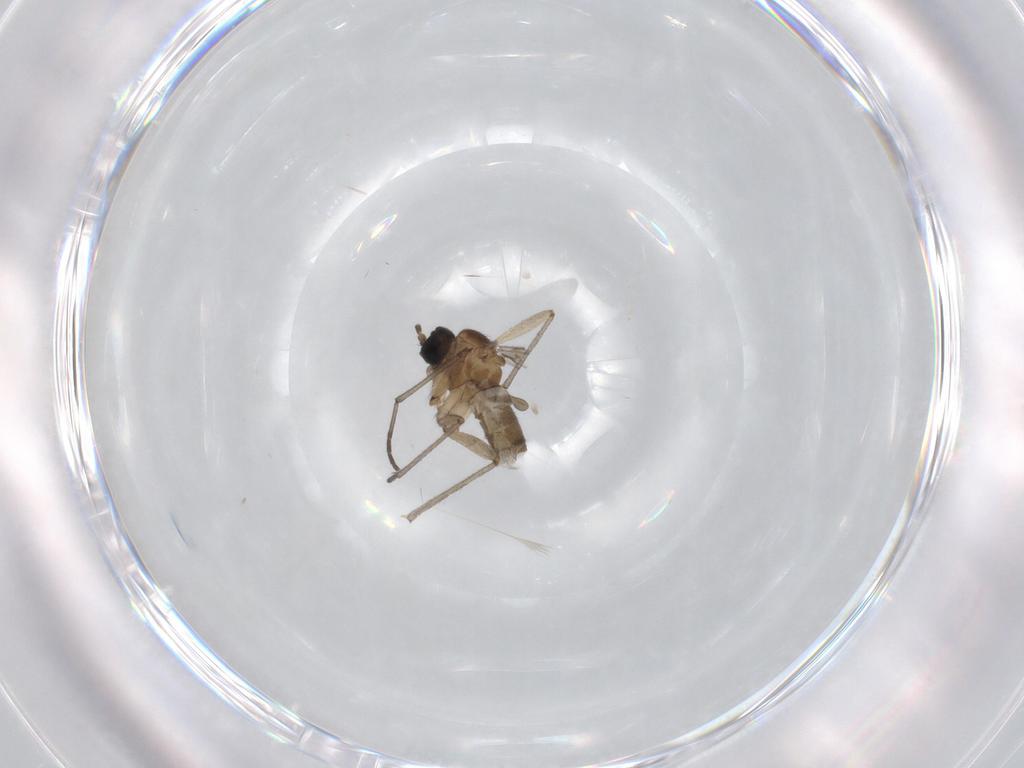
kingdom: Animalia
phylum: Arthropoda
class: Insecta
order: Diptera
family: Sciaridae
